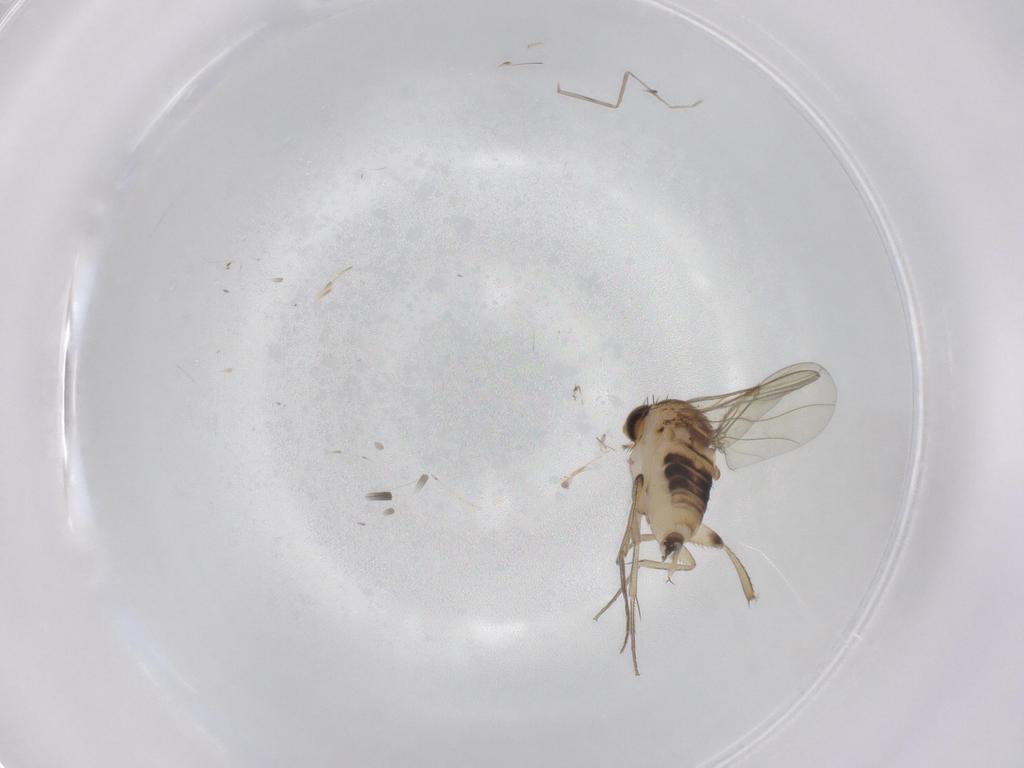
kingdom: Animalia
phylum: Arthropoda
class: Insecta
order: Diptera
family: Phoridae
